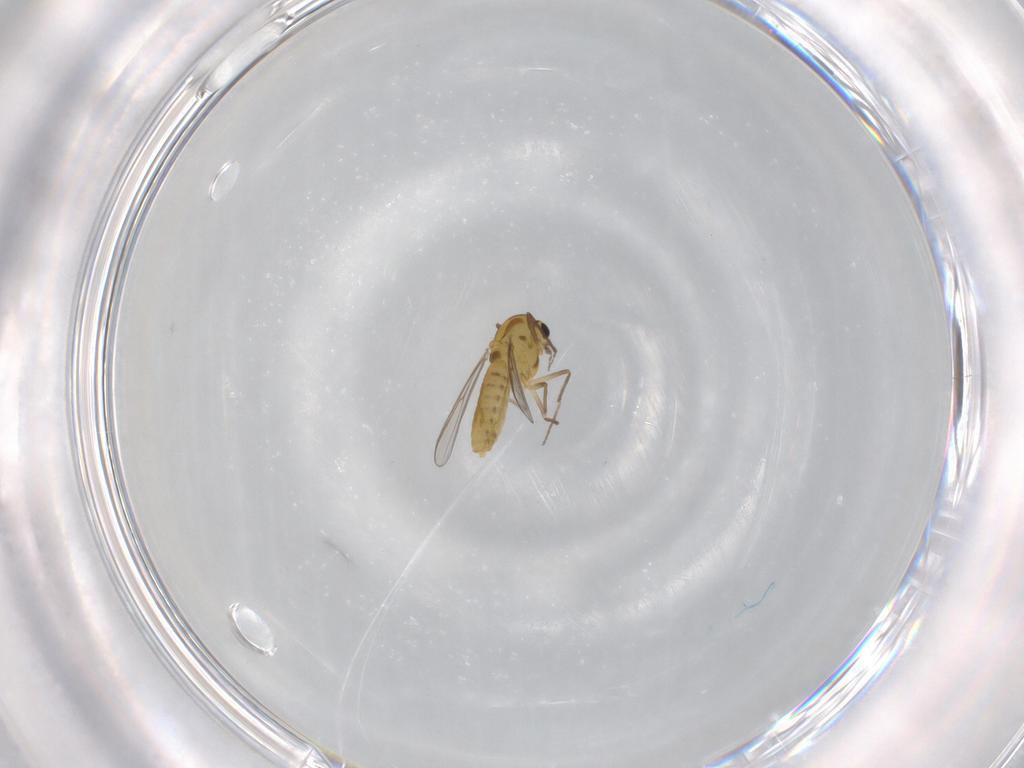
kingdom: Animalia
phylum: Arthropoda
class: Insecta
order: Diptera
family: Chironomidae
